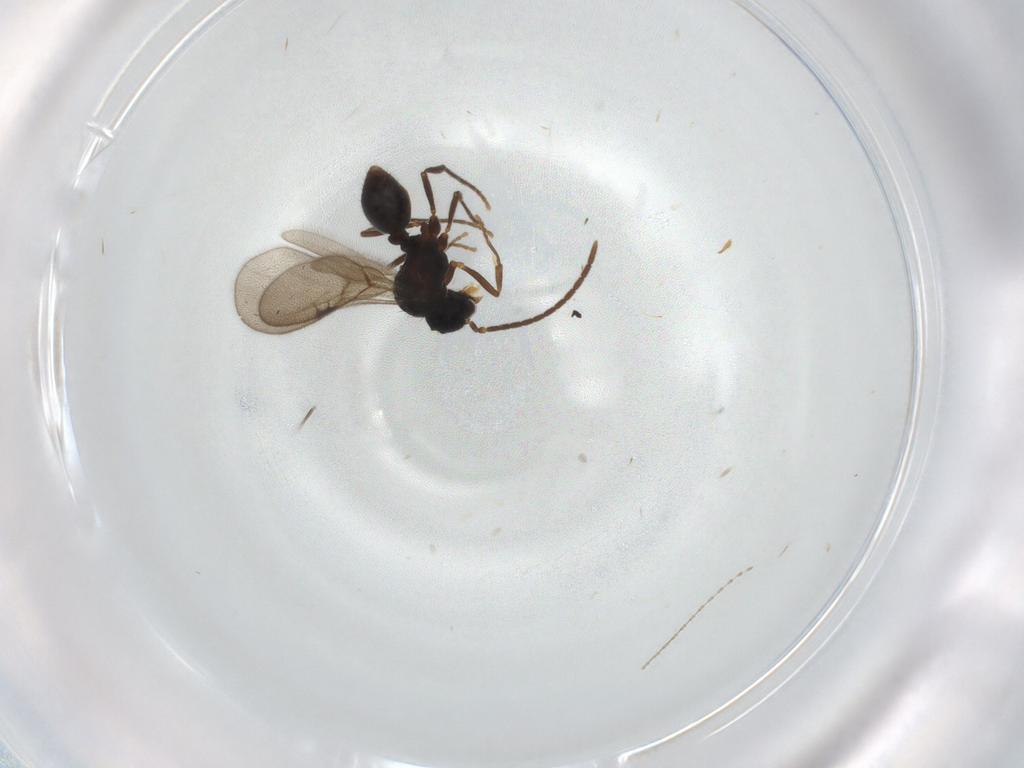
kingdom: Animalia
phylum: Arthropoda
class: Insecta
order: Hymenoptera
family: Formicidae
